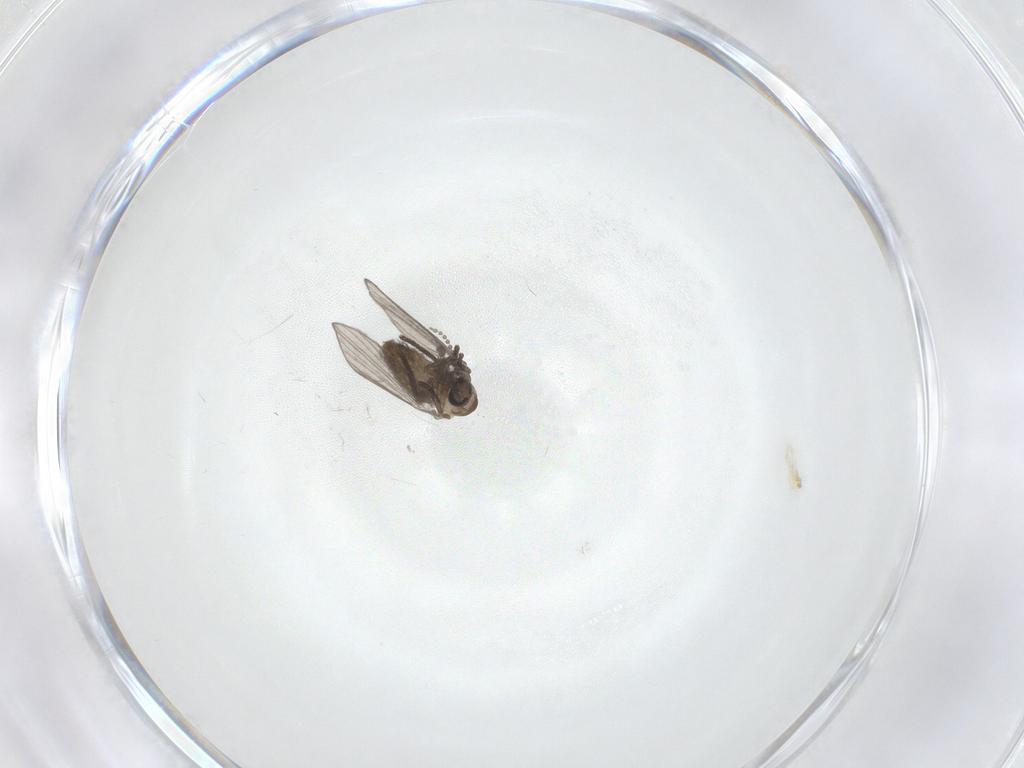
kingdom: Animalia
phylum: Arthropoda
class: Insecta
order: Diptera
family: Psychodidae
